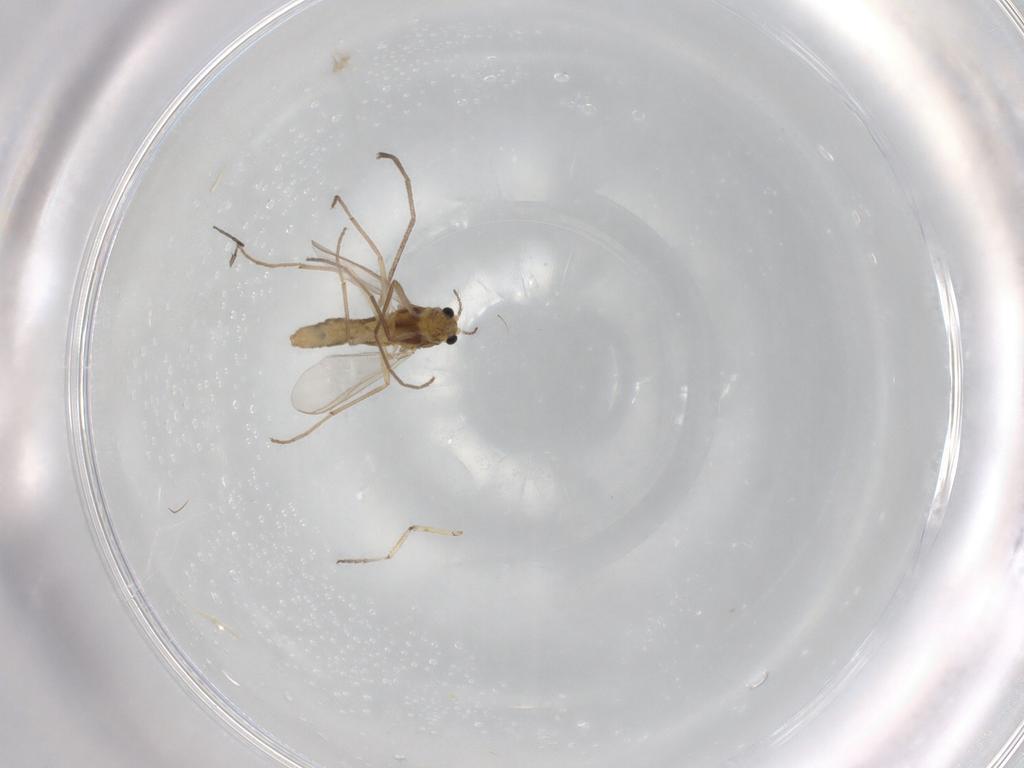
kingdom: Animalia
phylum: Arthropoda
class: Insecta
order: Diptera
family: Chironomidae
